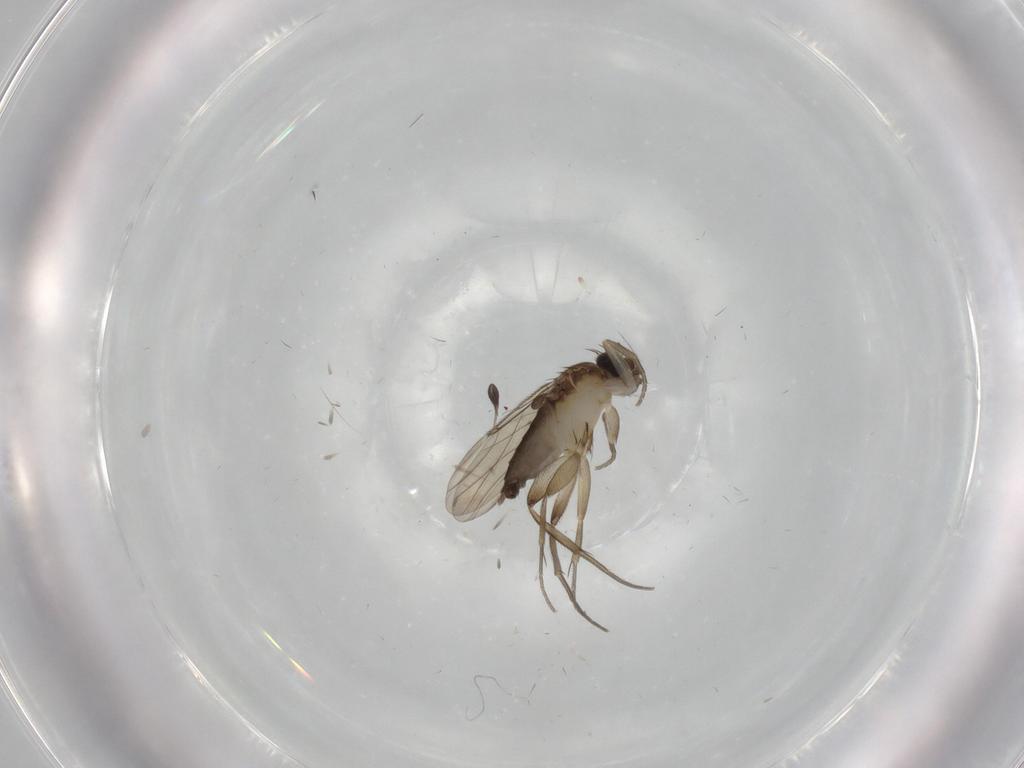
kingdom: Animalia
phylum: Arthropoda
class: Insecta
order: Diptera
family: Phoridae
